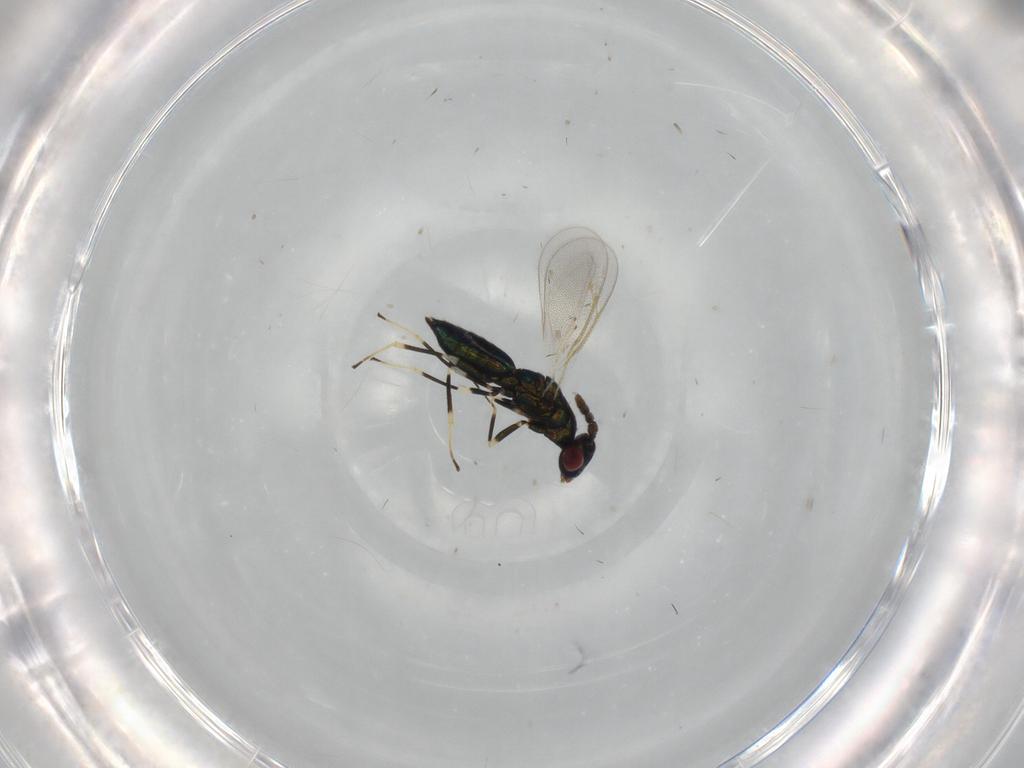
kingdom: Animalia
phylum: Arthropoda
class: Insecta
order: Hymenoptera
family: Eulophidae
